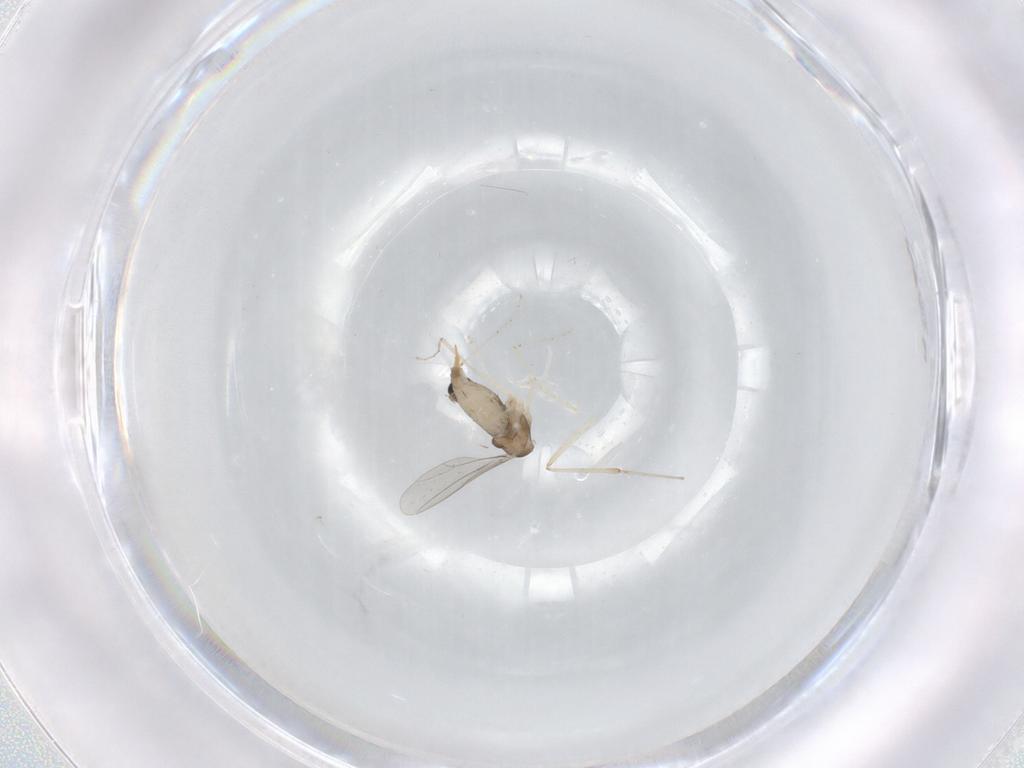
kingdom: Animalia
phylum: Arthropoda
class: Insecta
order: Diptera
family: Cecidomyiidae
